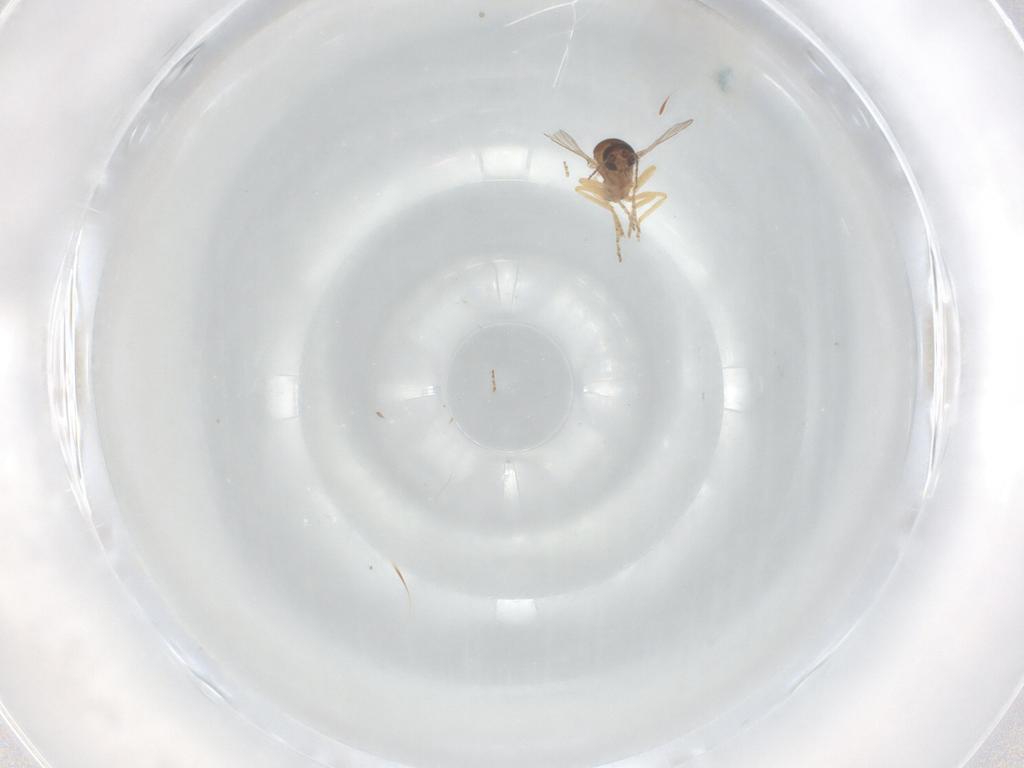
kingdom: Animalia
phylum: Arthropoda
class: Insecta
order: Diptera
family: Ceratopogonidae
